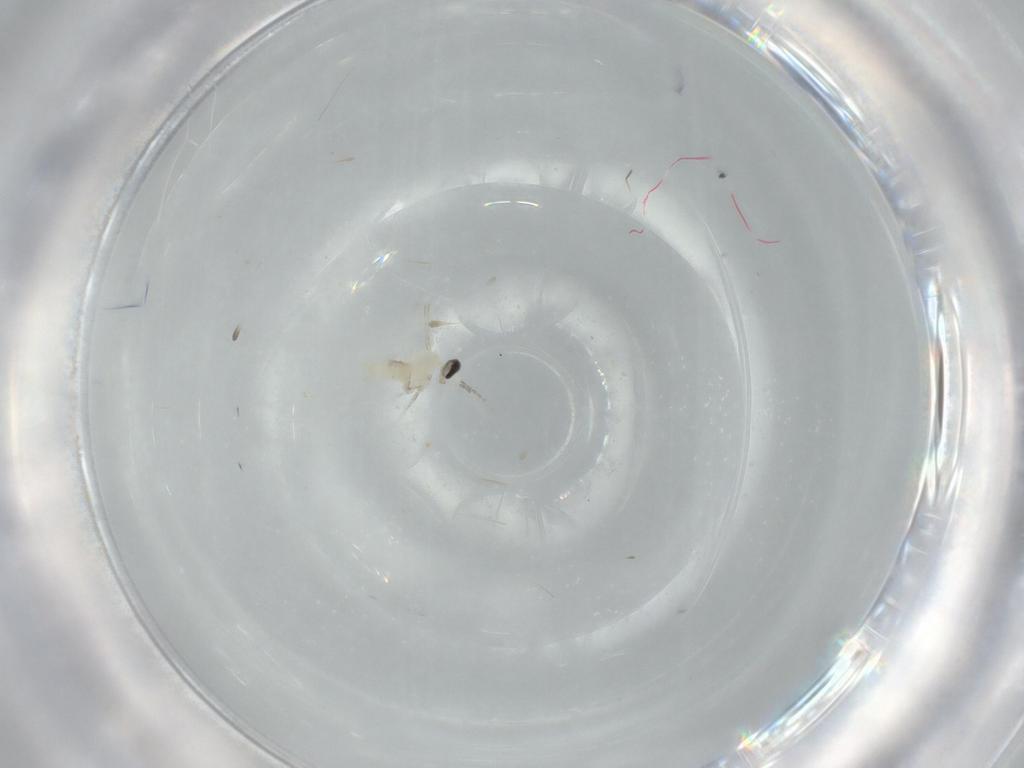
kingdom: Animalia
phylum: Arthropoda
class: Insecta
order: Diptera
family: Cecidomyiidae
